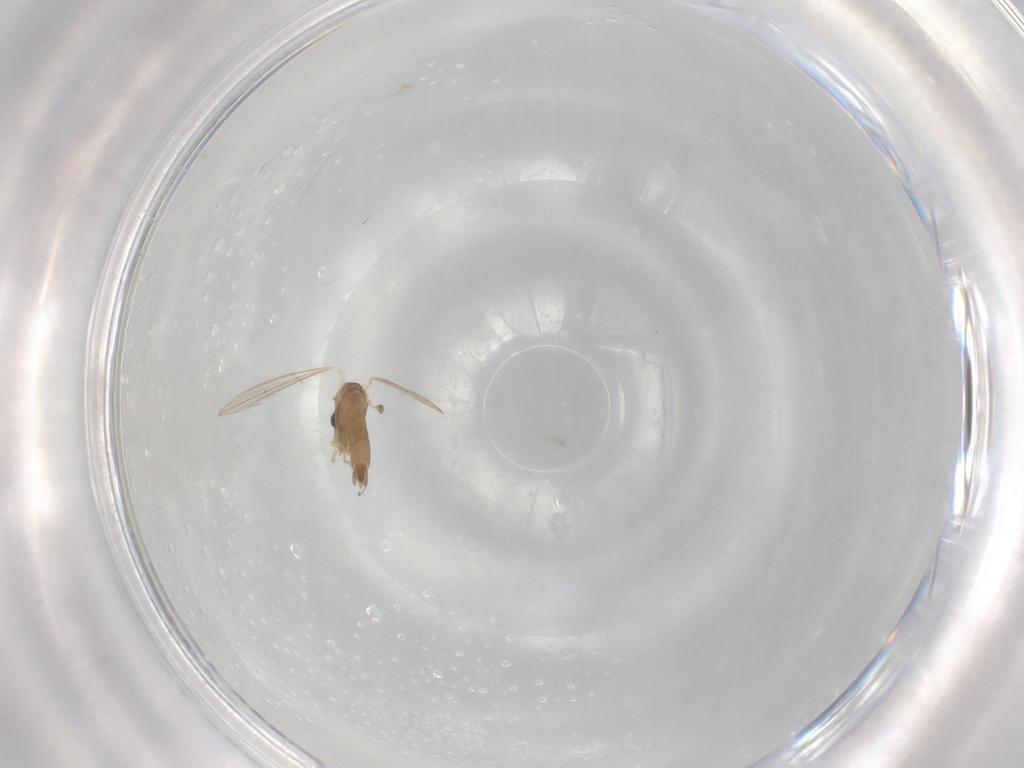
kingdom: Animalia
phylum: Arthropoda
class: Insecta
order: Diptera
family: Psychodidae
